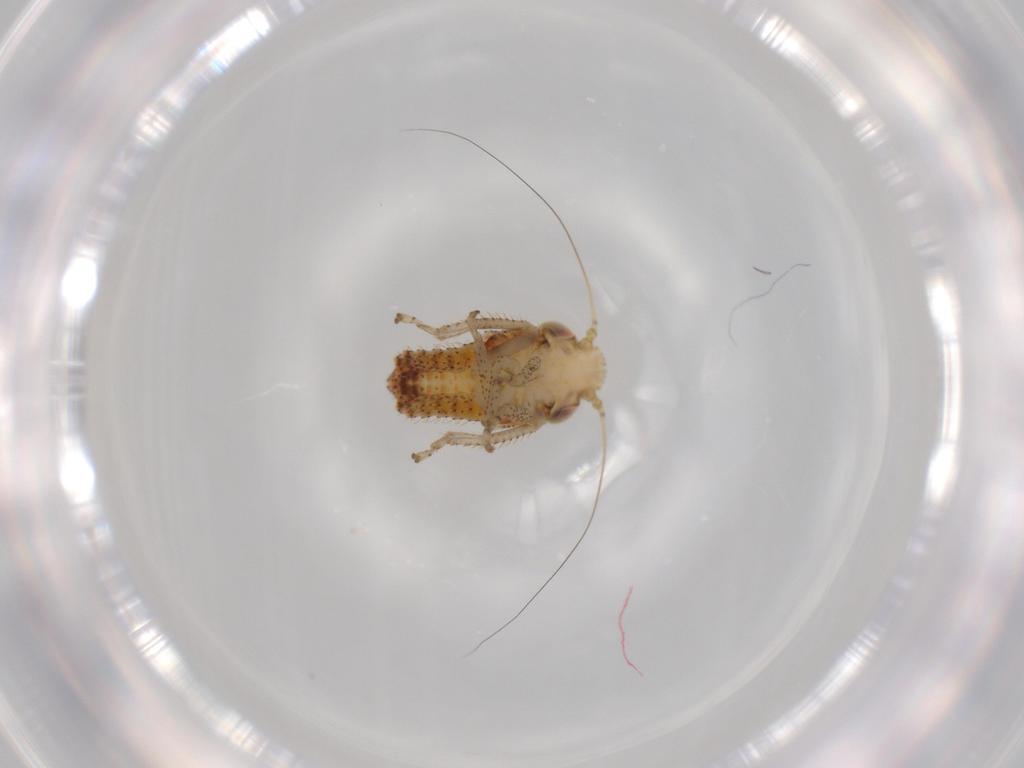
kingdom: Animalia
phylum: Arthropoda
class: Insecta
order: Hemiptera
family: Cicadellidae
